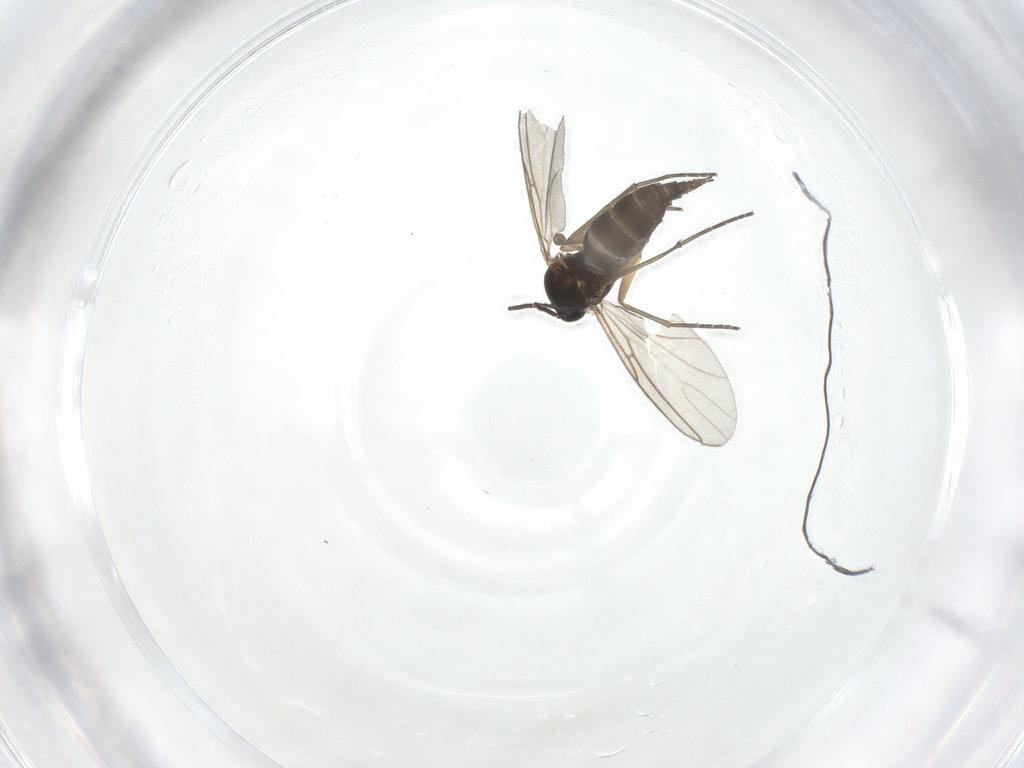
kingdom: Animalia
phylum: Arthropoda
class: Insecta
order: Diptera
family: Sciaridae
